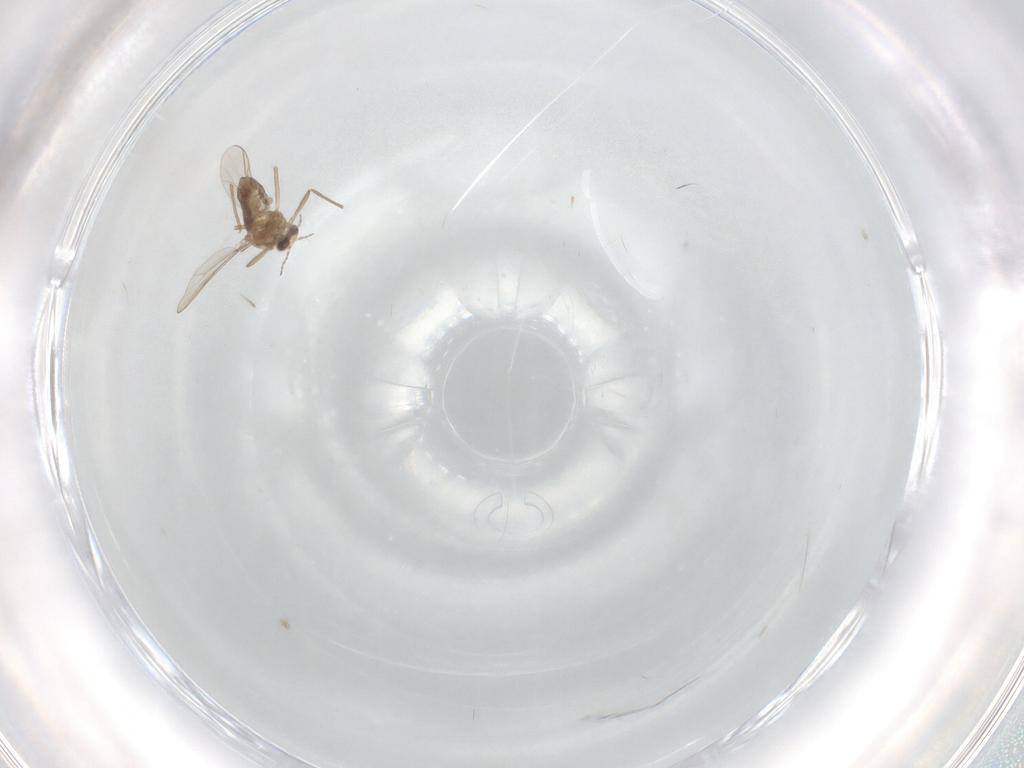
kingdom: Animalia
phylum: Arthropoda
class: Insecta
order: Diptera
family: Chironomidae
